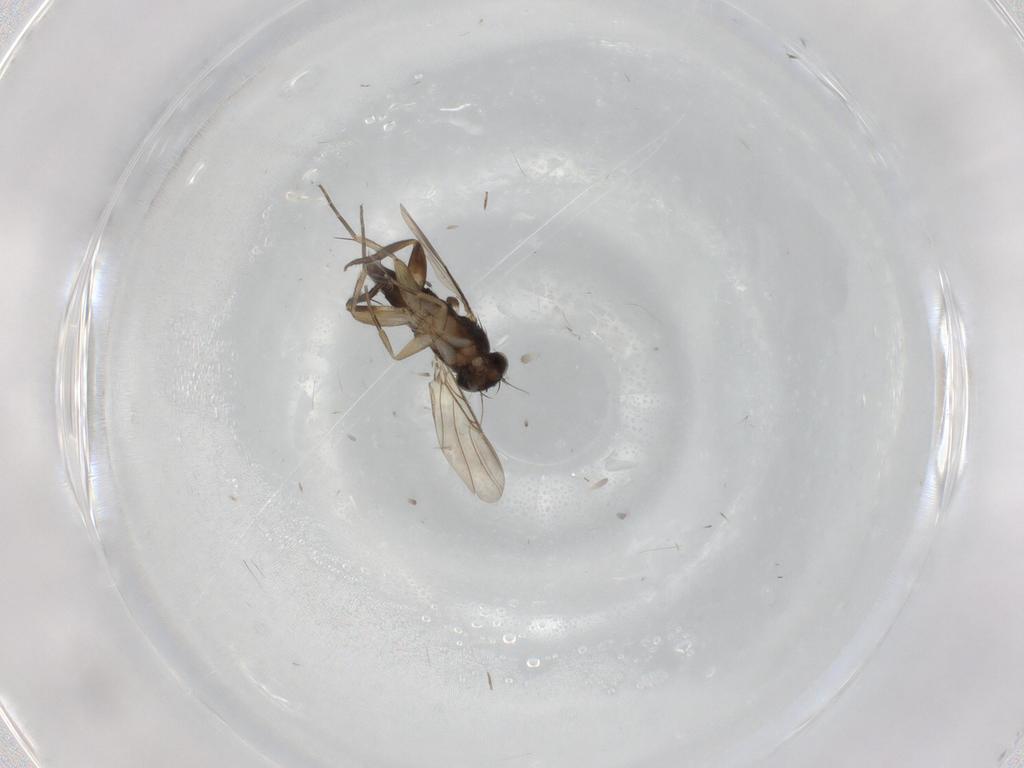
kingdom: Animalia
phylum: Arthropoda
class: Insecta
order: Diptera
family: Phoridae
